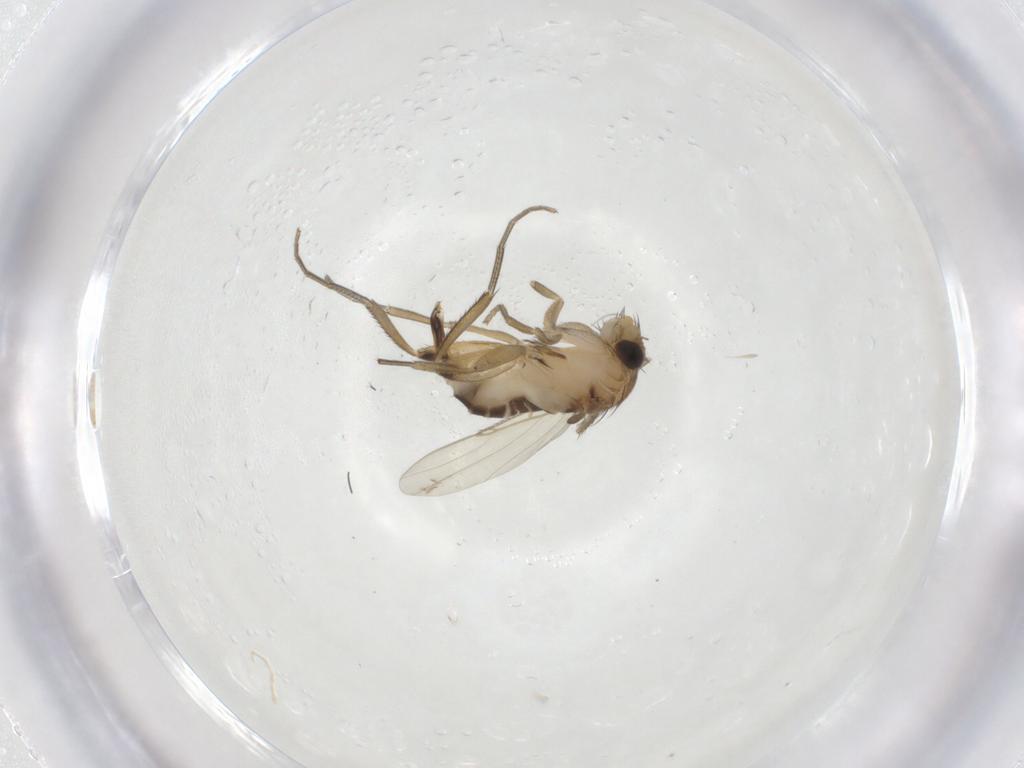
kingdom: Animalia
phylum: Arthropoda
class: Insecta
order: Diptera
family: Phoridae
